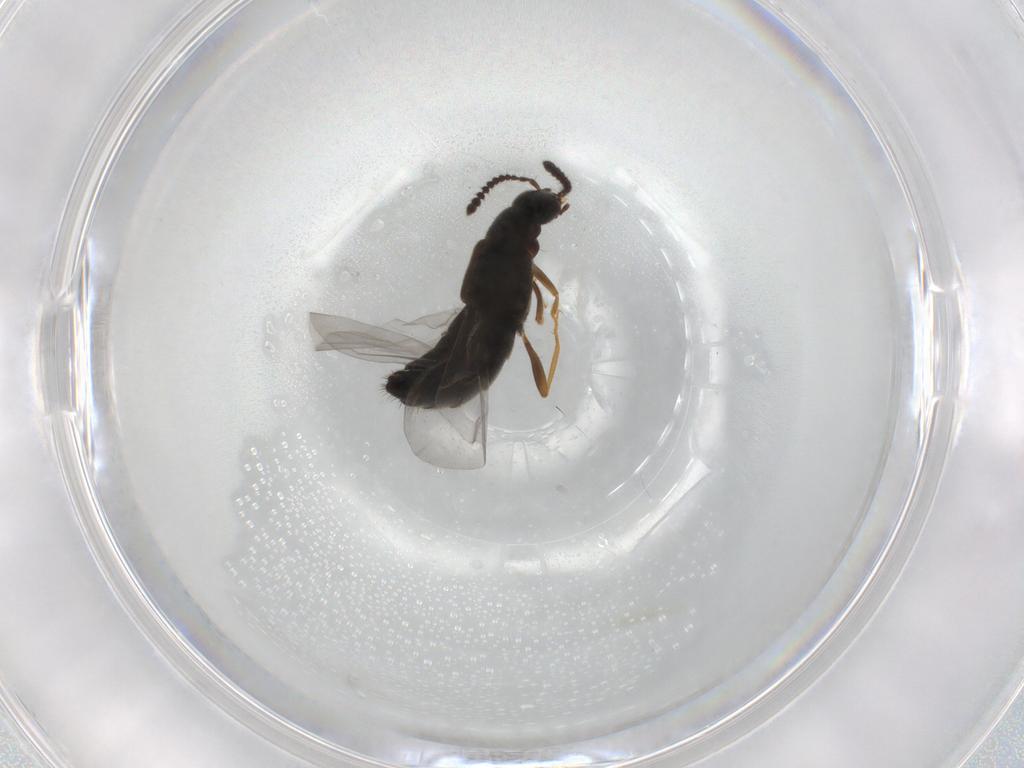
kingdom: Animalia
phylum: Arthropoda
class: Insecta
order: Coleoptera
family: Staphylinidae
